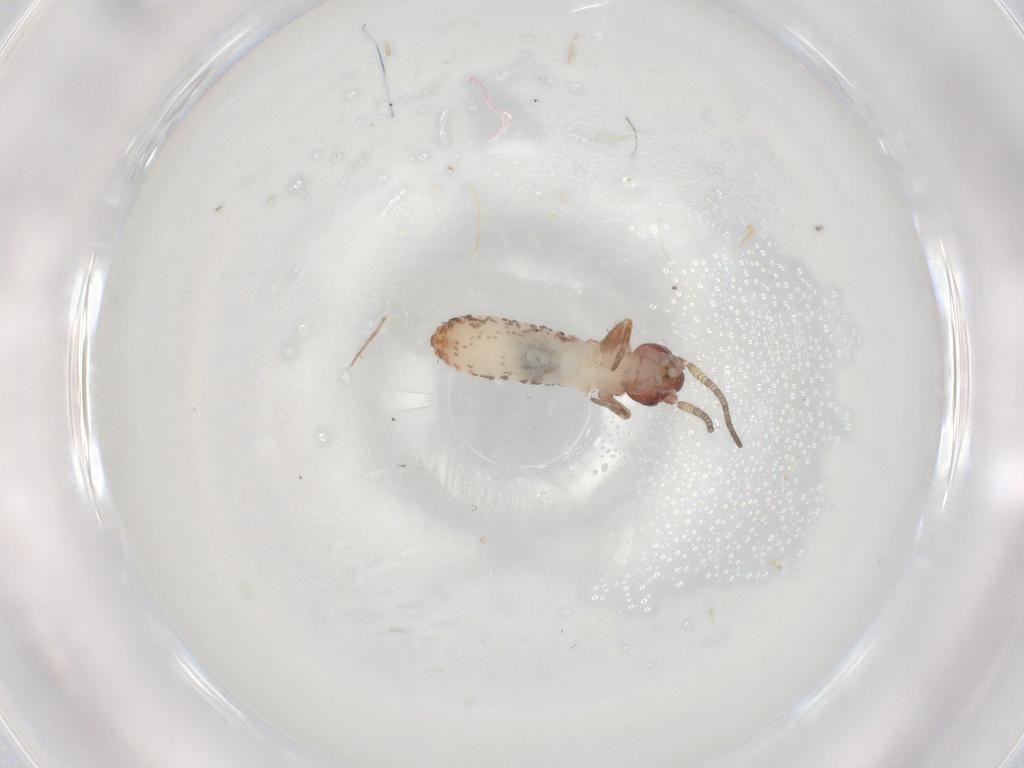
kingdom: Animalia
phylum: Arthropoda
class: Insecta
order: Orthoptera
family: Mogoplistidae
